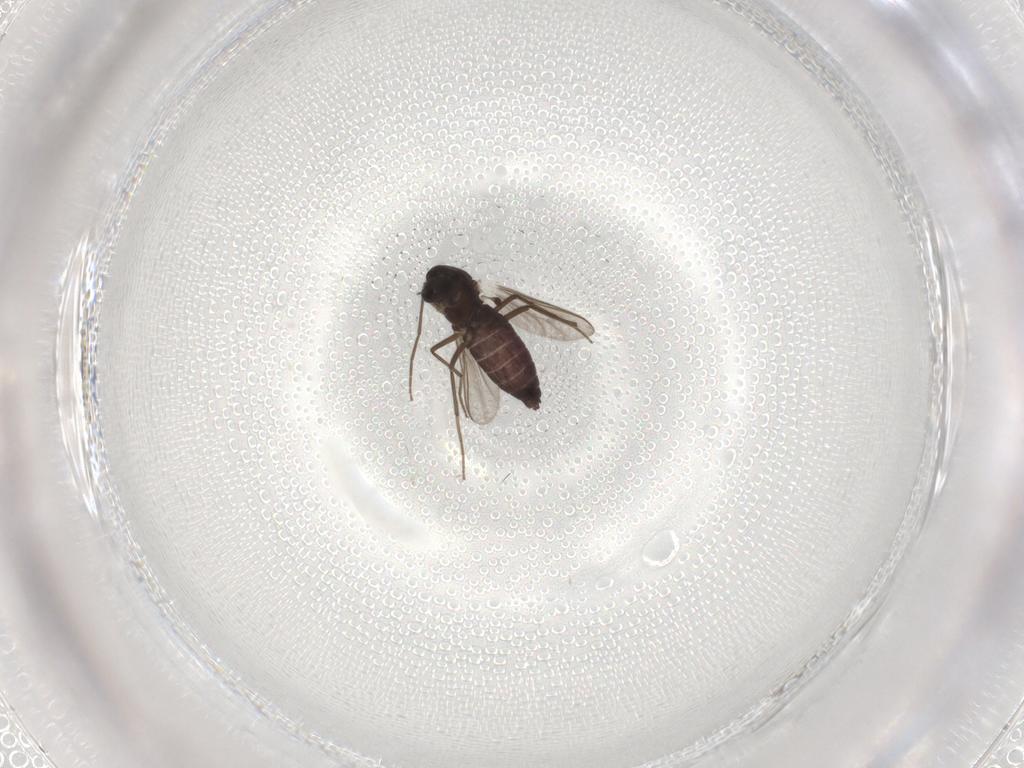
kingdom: Animalia
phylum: Arthropoda
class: Insecta
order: Diptera
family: Chironomidae
